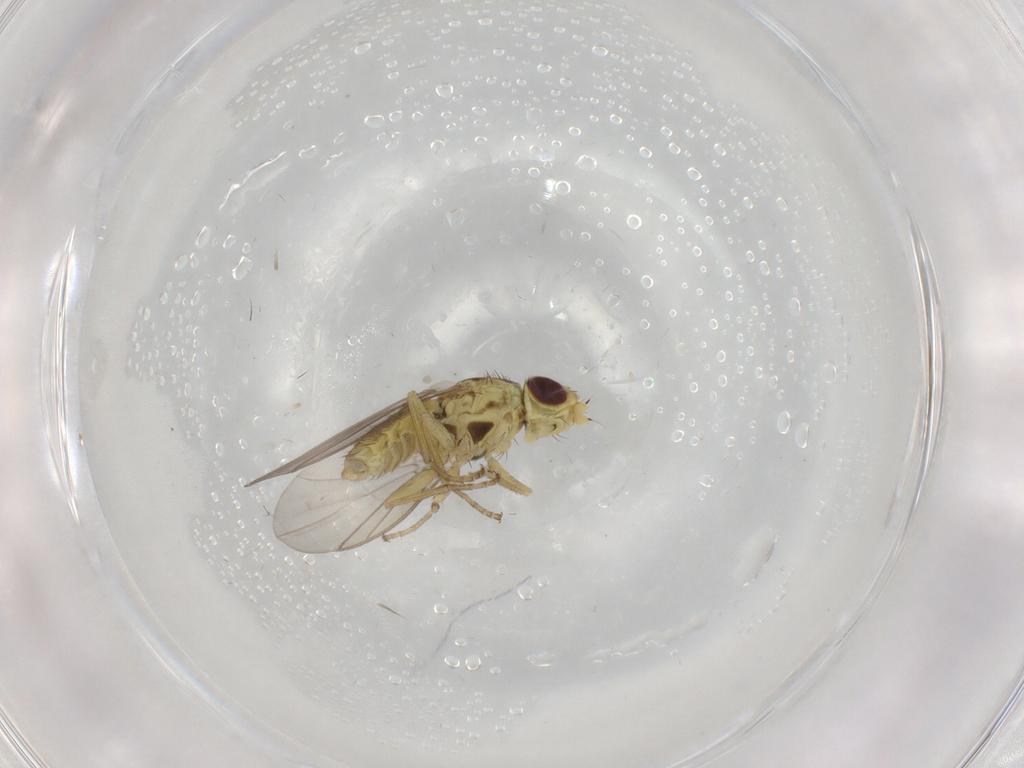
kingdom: Animalia
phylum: Arthropoda
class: Insecta
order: Diptera
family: Agromyzidae
